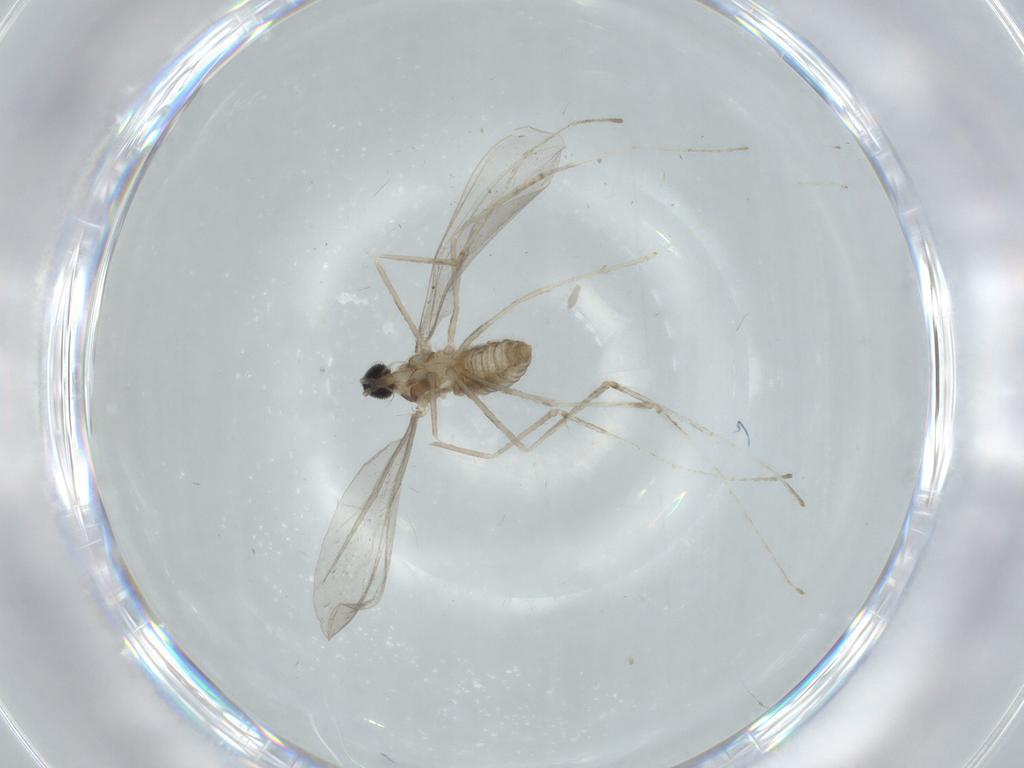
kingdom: Animalia
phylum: Arthropoda
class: Insecta
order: Diptera
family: Cecidomyiidae
